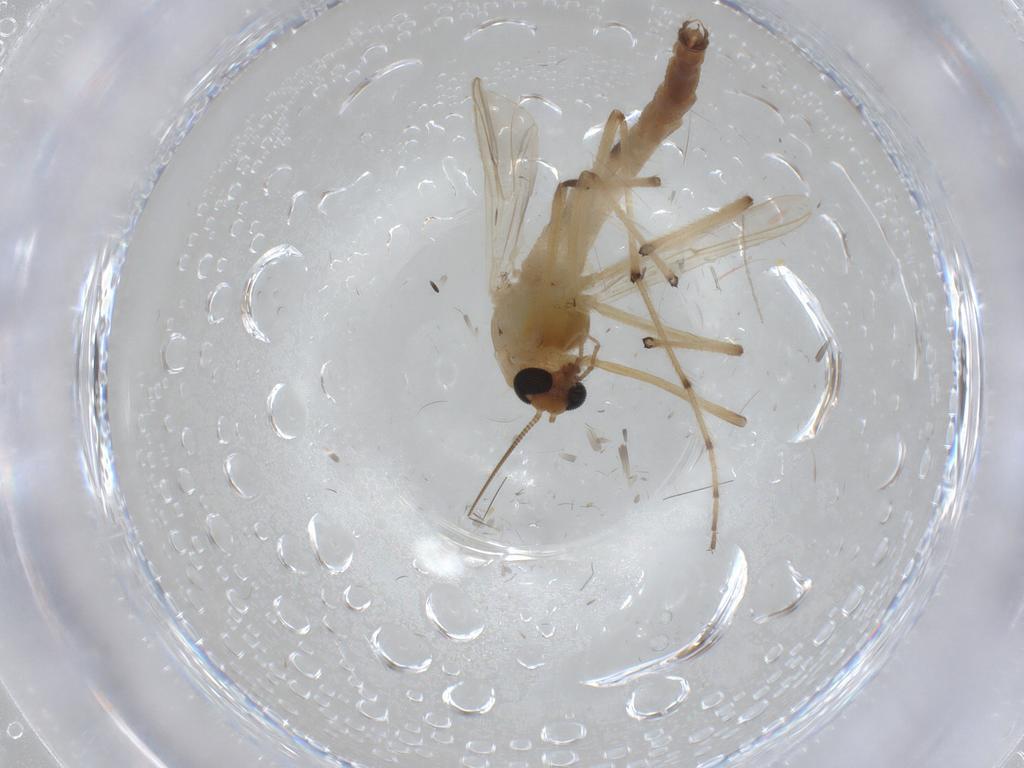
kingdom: Animalia
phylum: Arthropoda
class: Insecta
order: Diptera
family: Chironomidae
